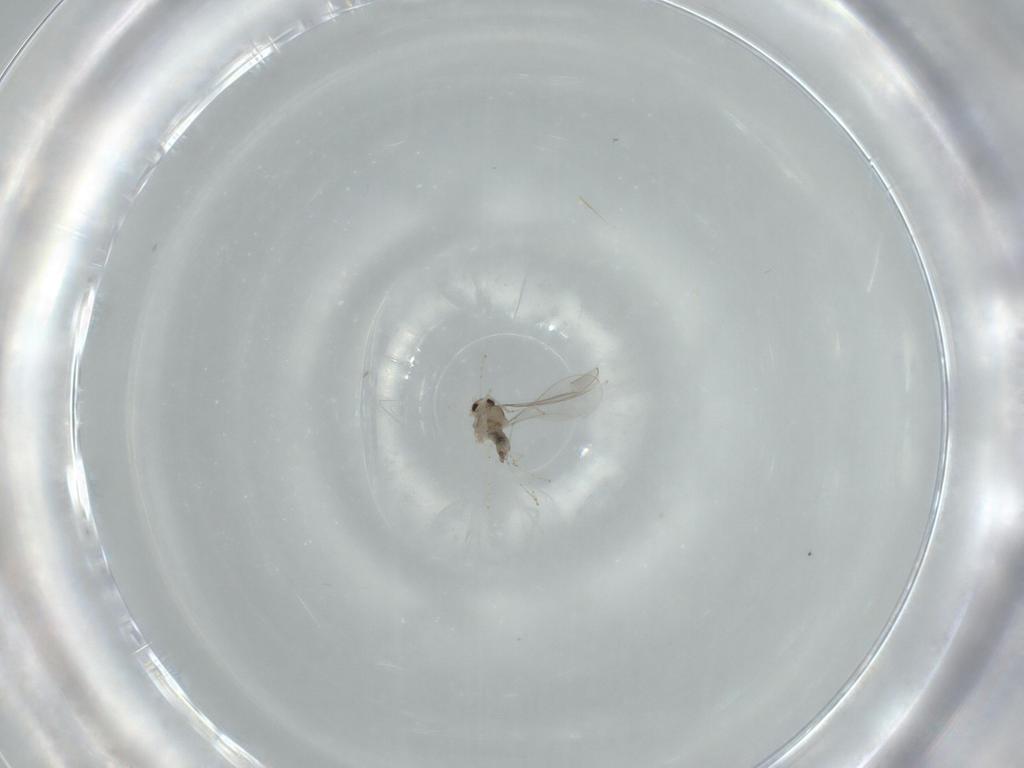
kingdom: Animalia
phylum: Arthropoda
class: Insecta
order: Diptera
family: Cecidomyiidae
